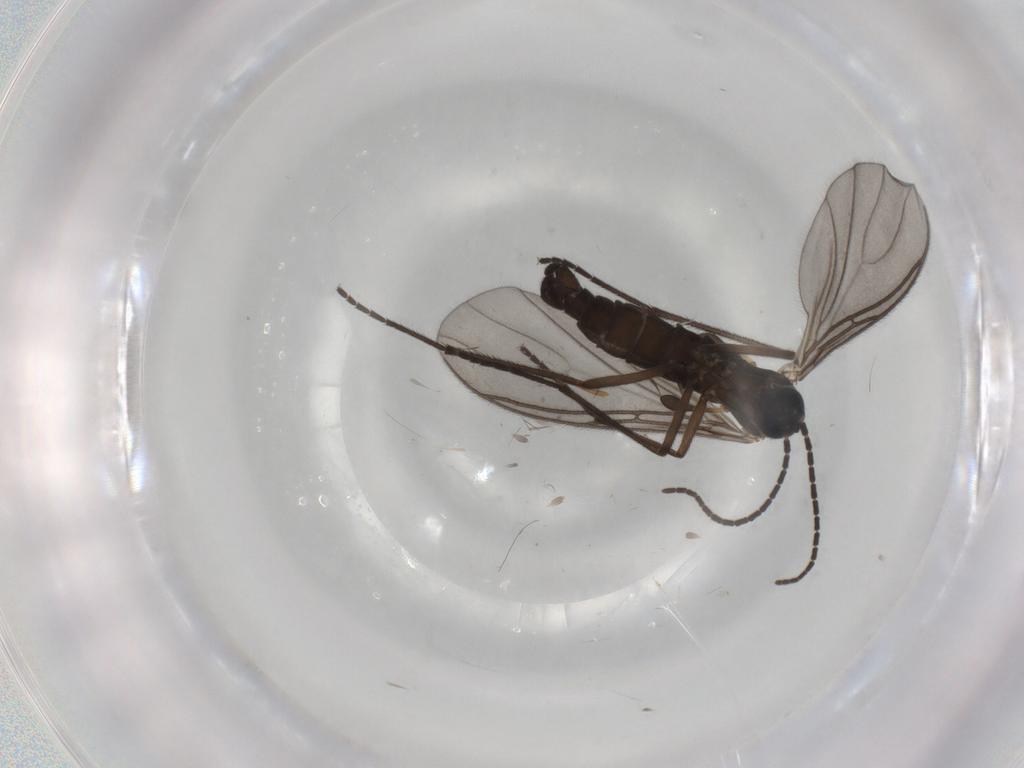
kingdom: Animalia
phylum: Arthropoda
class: Insecta
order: Diptera
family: Sciaridae
